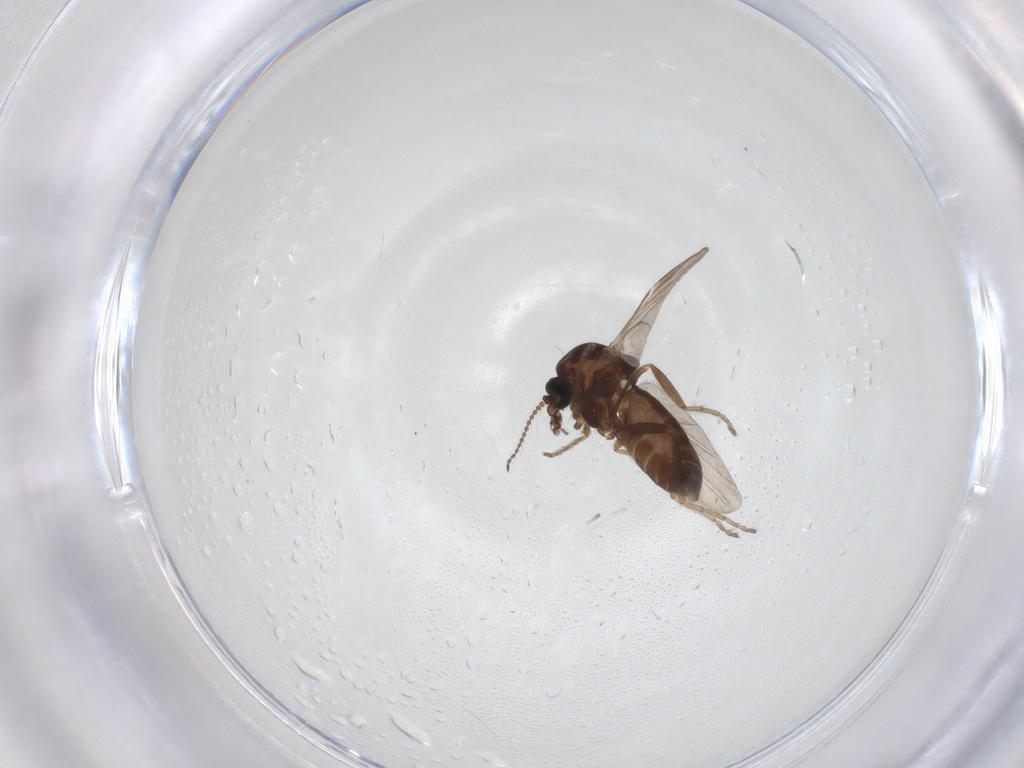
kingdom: Animalia
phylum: Arthropoda
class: Insecta
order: Diptera
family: Ceratopogonidae
